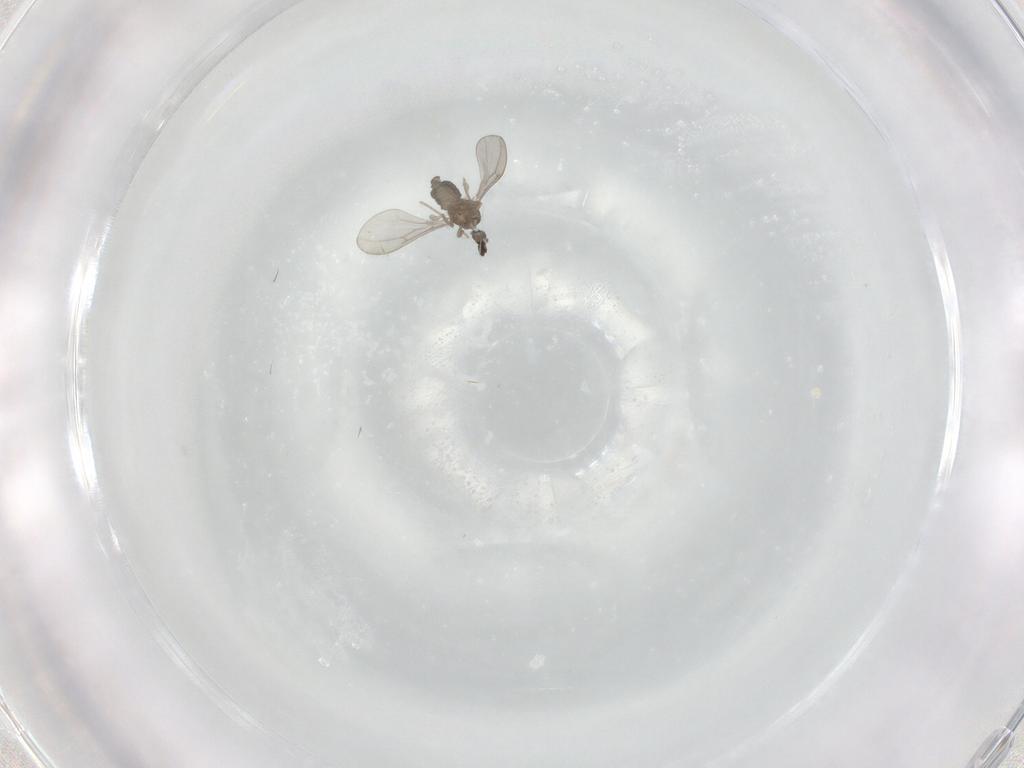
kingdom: Animalia
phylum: Arthropoda
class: Insecta
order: Diptera
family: Cecidomyiidae
